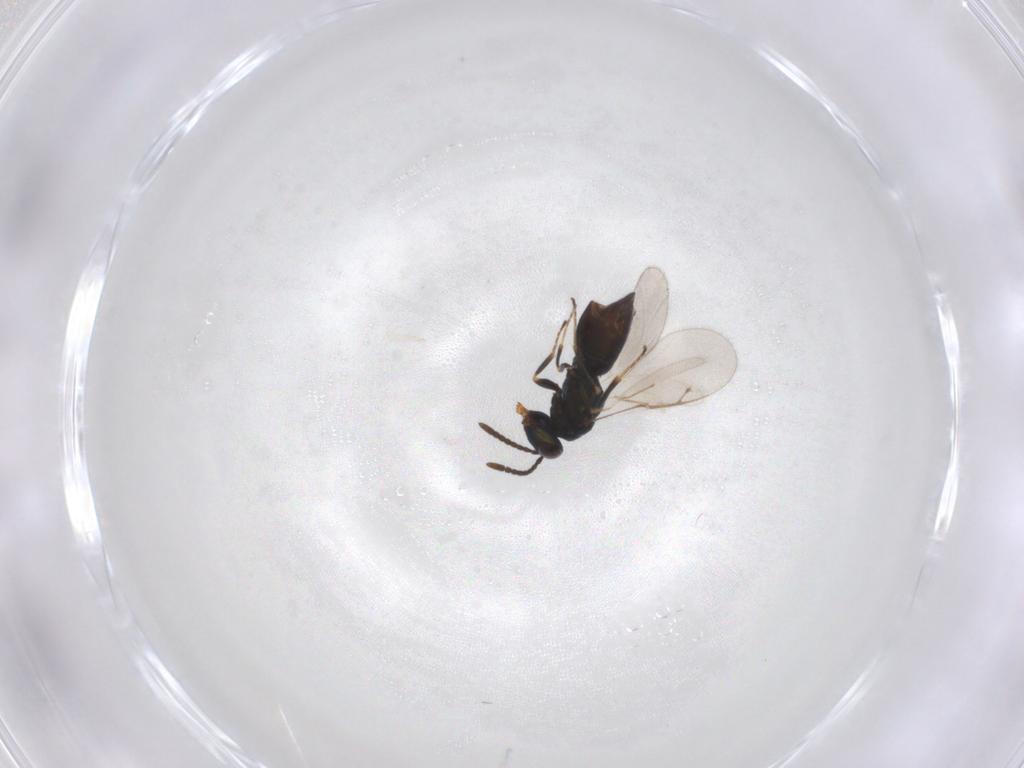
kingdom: Animalia
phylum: Arthropoda
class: Insecta
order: Hymenoptera
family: Pteromalidae
